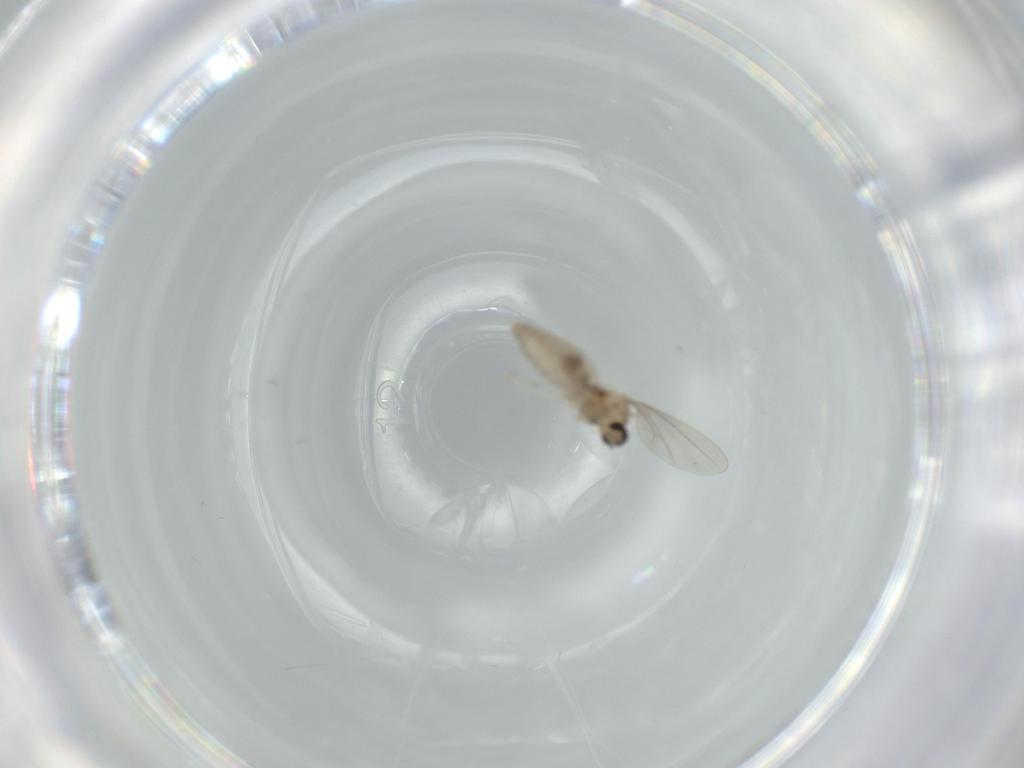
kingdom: Animalia
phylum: Arthropoda
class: Insecta
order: Diptera
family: Cecidomyiidae
